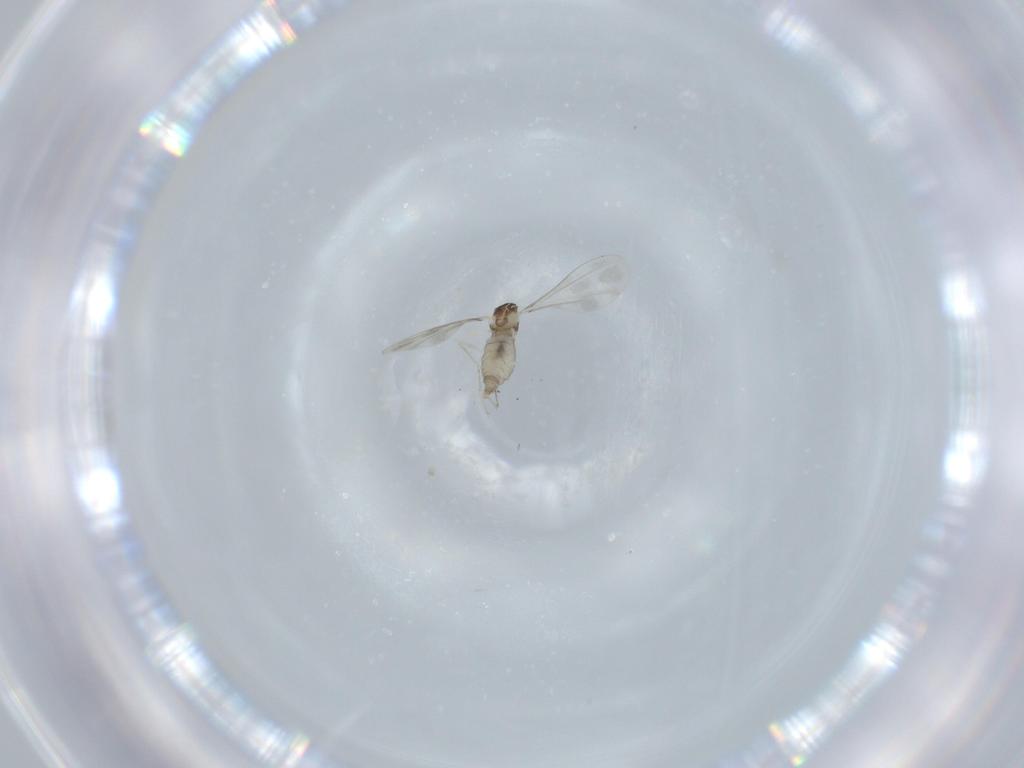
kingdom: Animalia
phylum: Arthropoda
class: Insecta
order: Diptera
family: Cecidomyiidae
